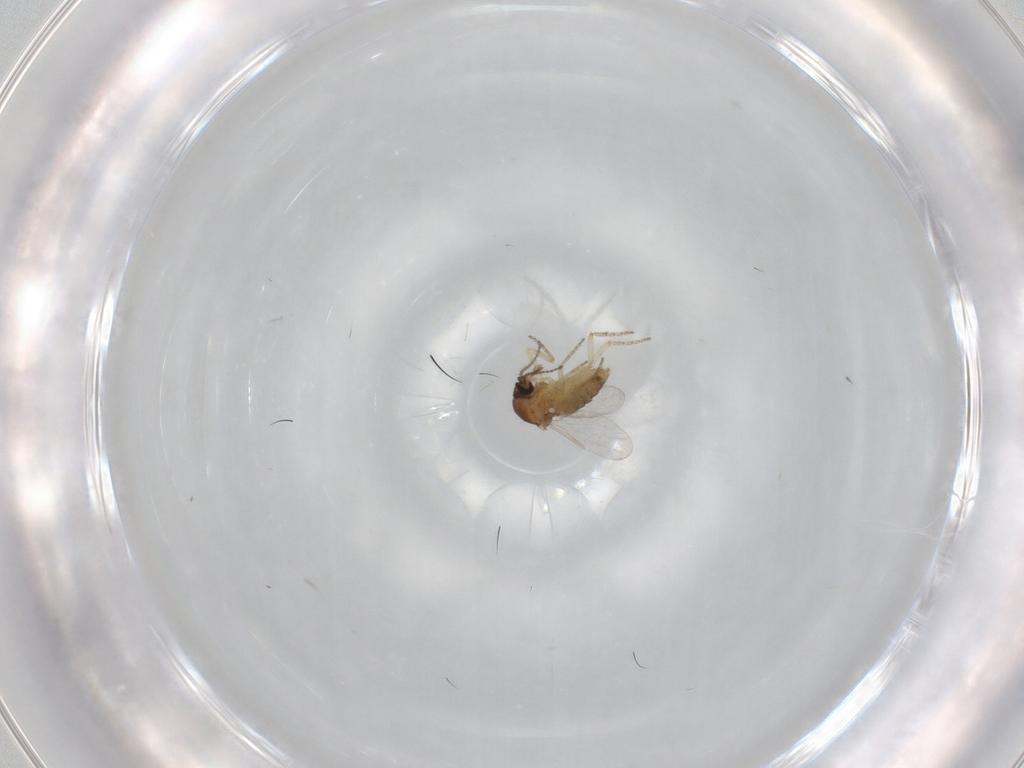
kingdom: Animalia
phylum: Arthropoda
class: Insecta
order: Diptera
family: Ceratopogonidae
